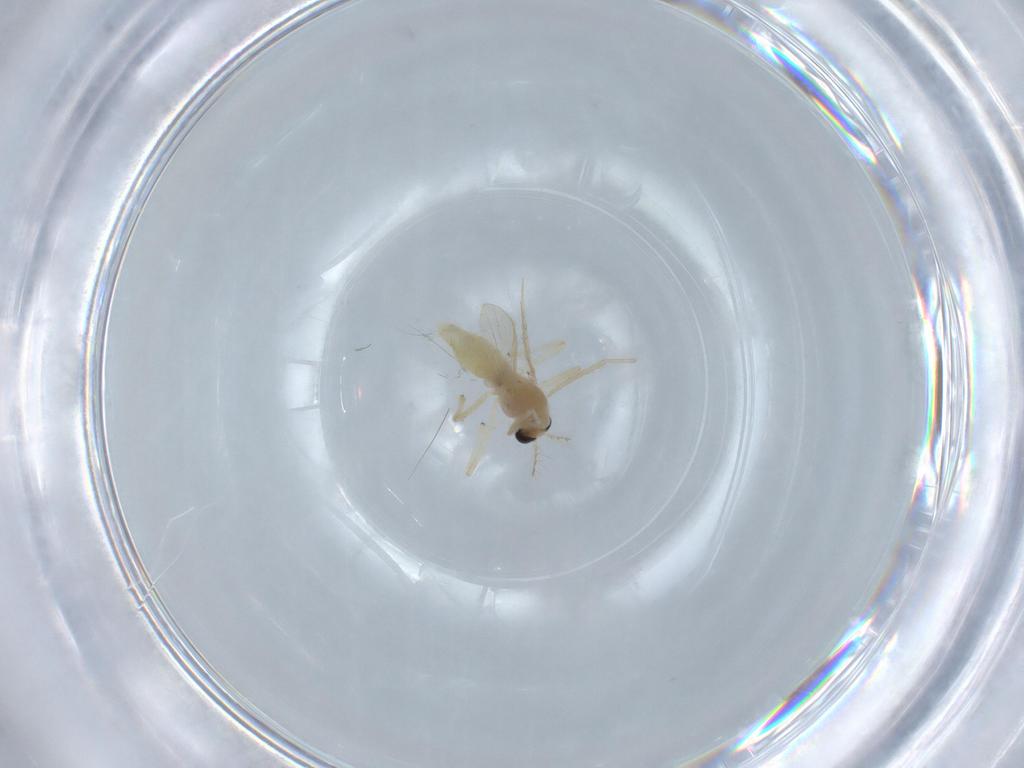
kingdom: Animalia
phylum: Arthropoda
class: Insecta
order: Diptera
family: Chironomidae
